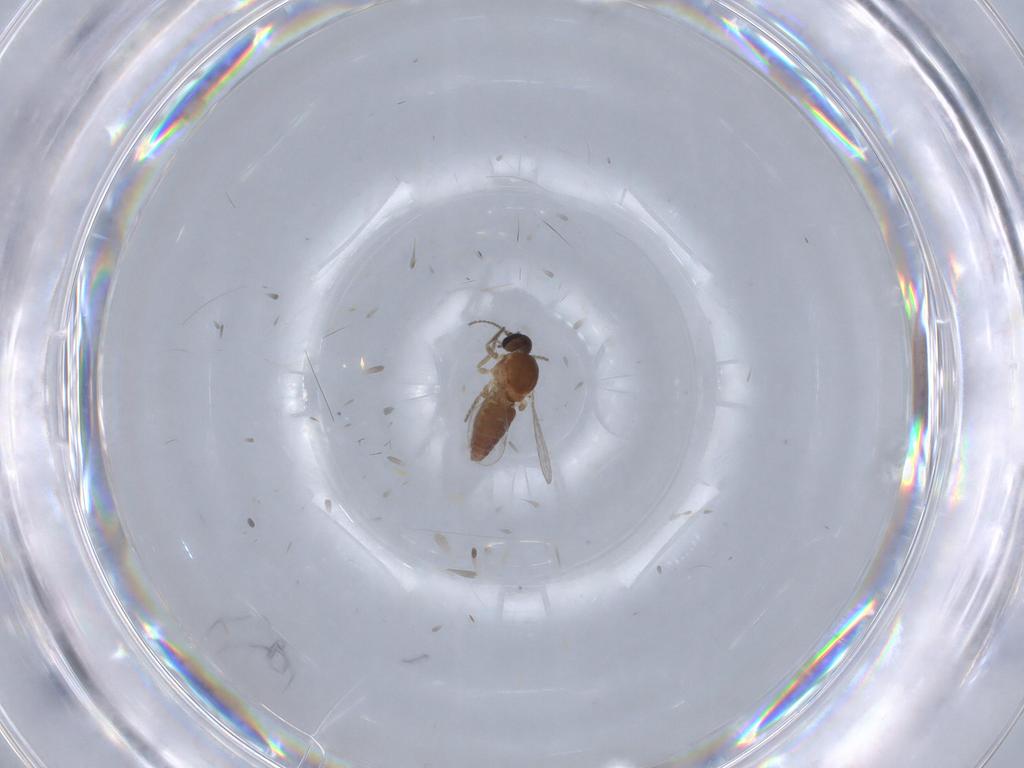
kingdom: Animalia
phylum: Arthropoda
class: Insecta
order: Diptera
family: Ceratopogonidae
